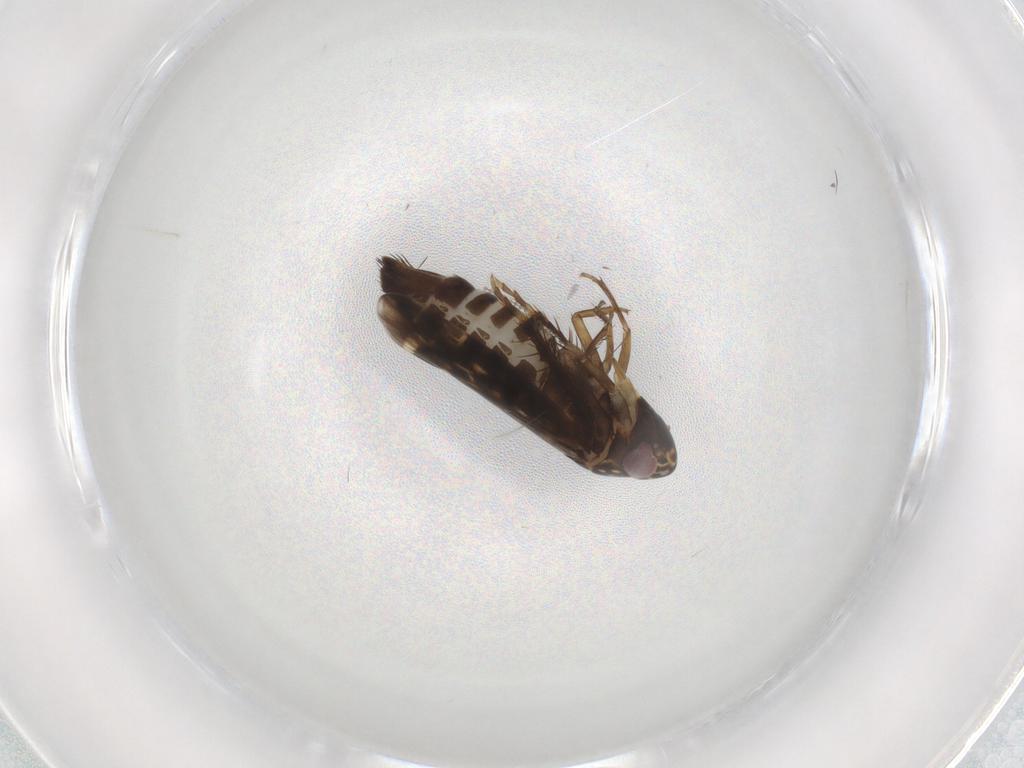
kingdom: Animalia
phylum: Arthropoda
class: Insecta
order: Hemiptera
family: Cicadellidae
